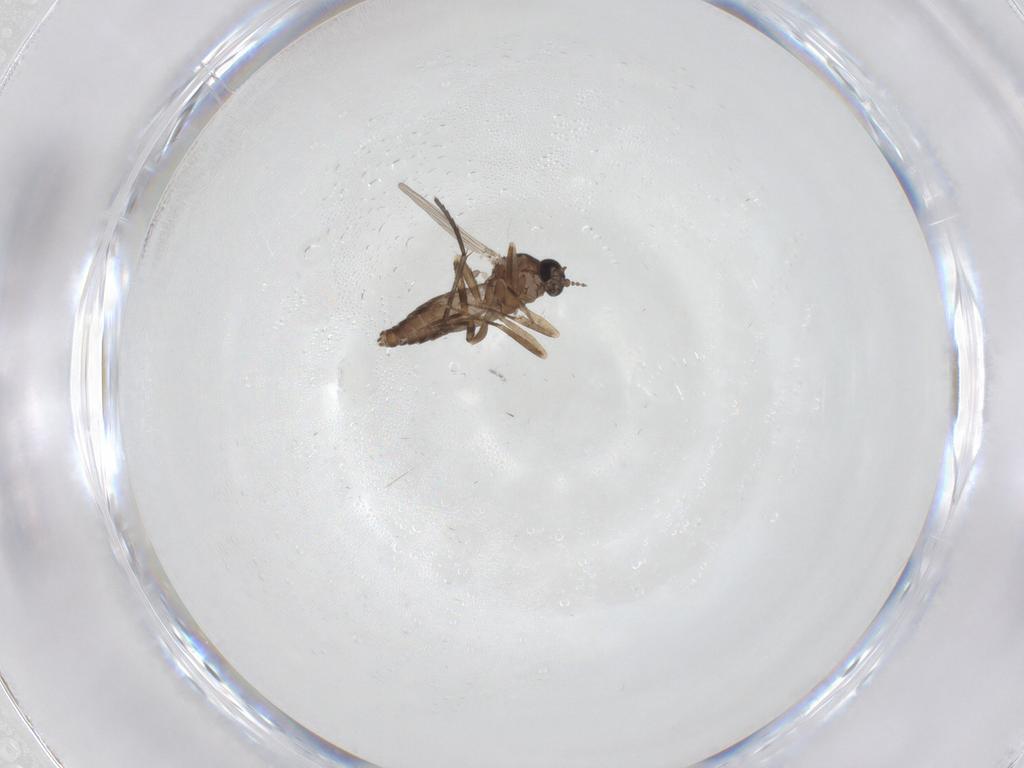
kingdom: Animalia
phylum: Arthropoda
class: Insecta
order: Diptera
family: Ceratopogonidae
